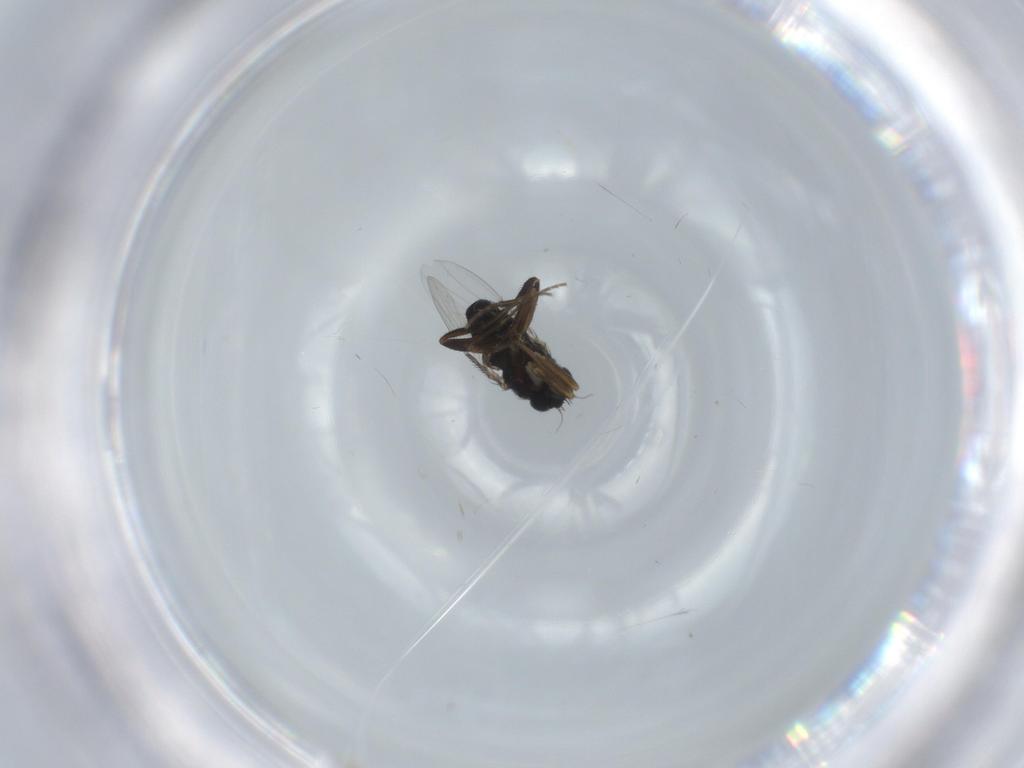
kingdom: Animalia
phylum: Arthropoda
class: Insecta
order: Diptera
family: Phoridae
